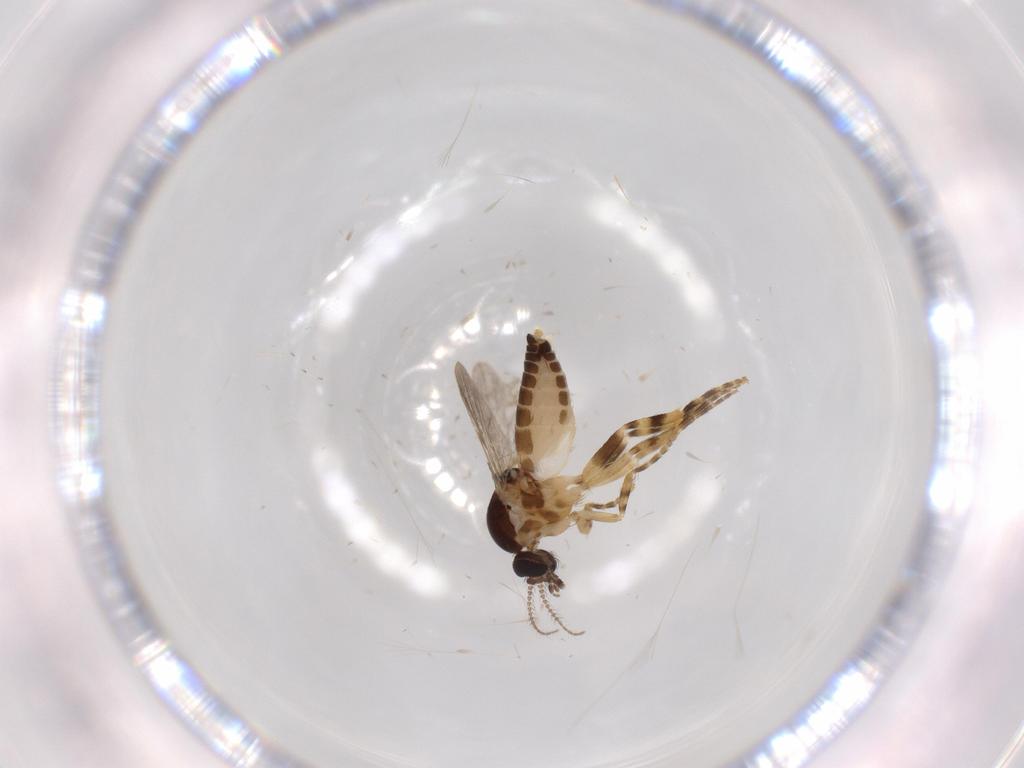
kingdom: Animalia
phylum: Arthropoda
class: Insecta
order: Diptera
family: Ceratopogonidae
